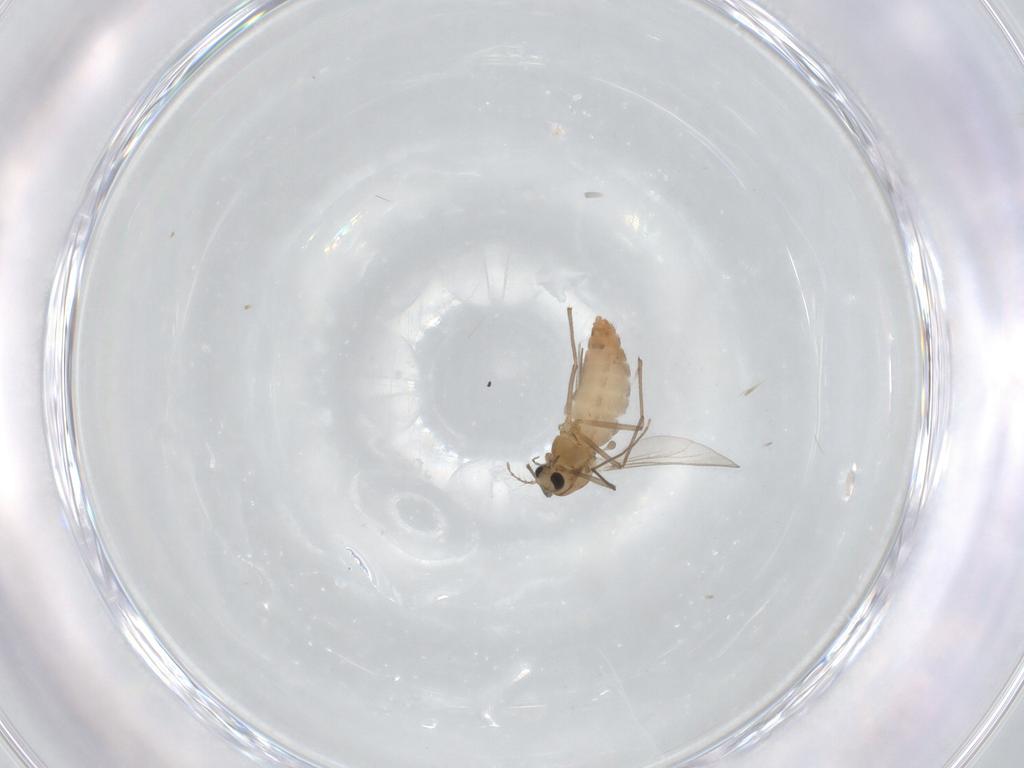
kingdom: Animalia
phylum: Arthropoda
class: Insecta
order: Diptera
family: Chironomidae
